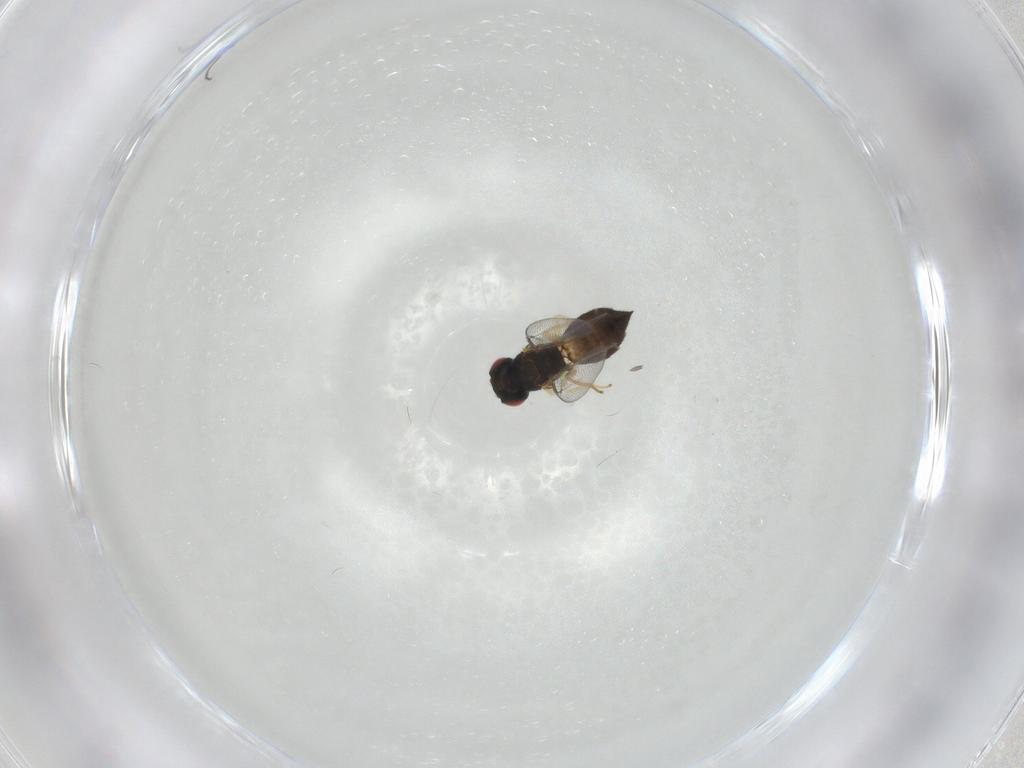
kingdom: Animalia
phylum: Arthropoda
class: Insecta
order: Hymenoptera
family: Eulophidae
